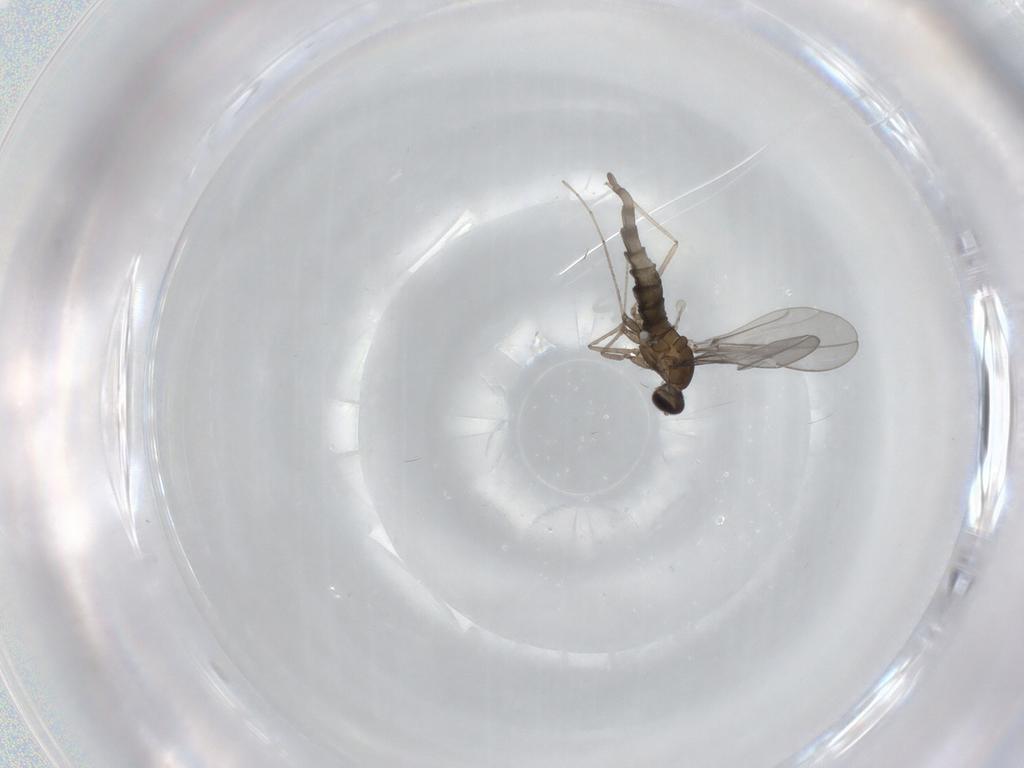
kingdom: Animalia
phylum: Arthropoda
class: Insecta
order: Diptera
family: Cecidomyiidae
